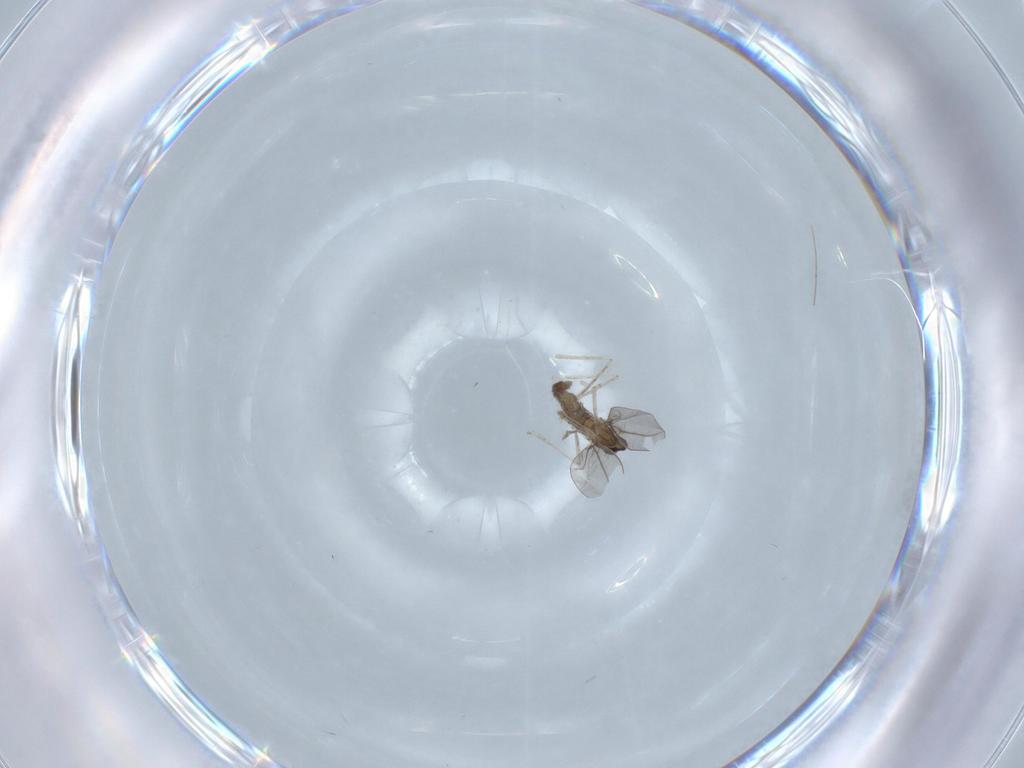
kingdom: Animalia
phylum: Arthropoda
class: Insecta
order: Diptera
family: Cecidomyiidae
